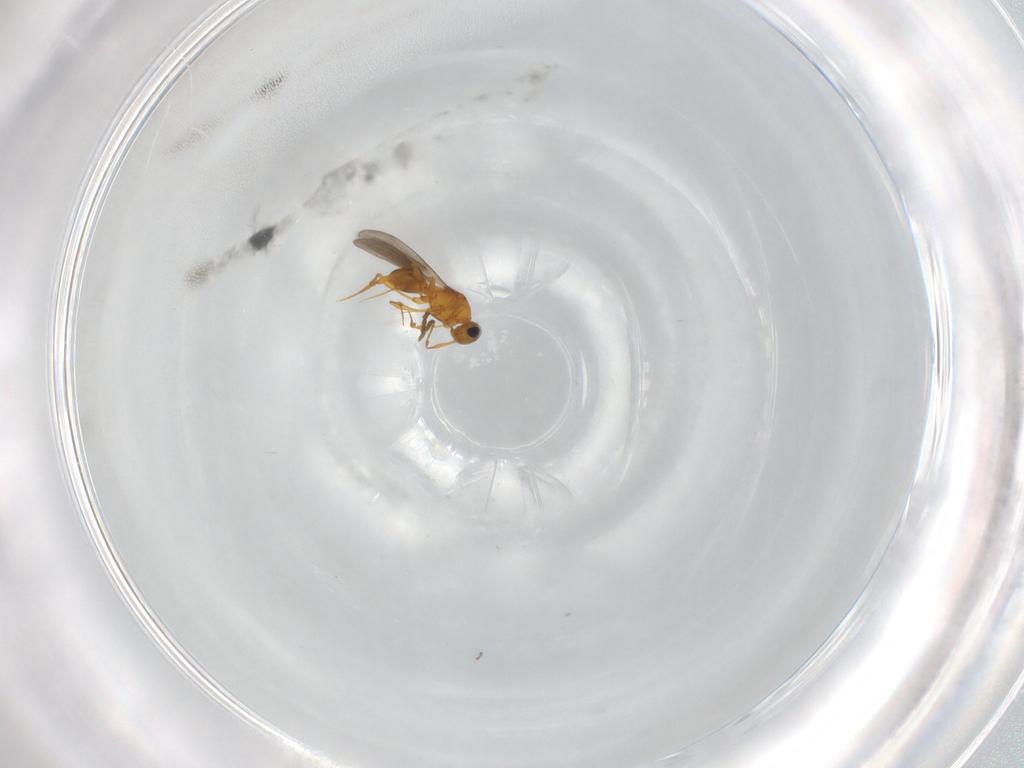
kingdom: Animalia
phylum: Arthropoda
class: Insecta
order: Hymenoptera
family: Platygastridae
